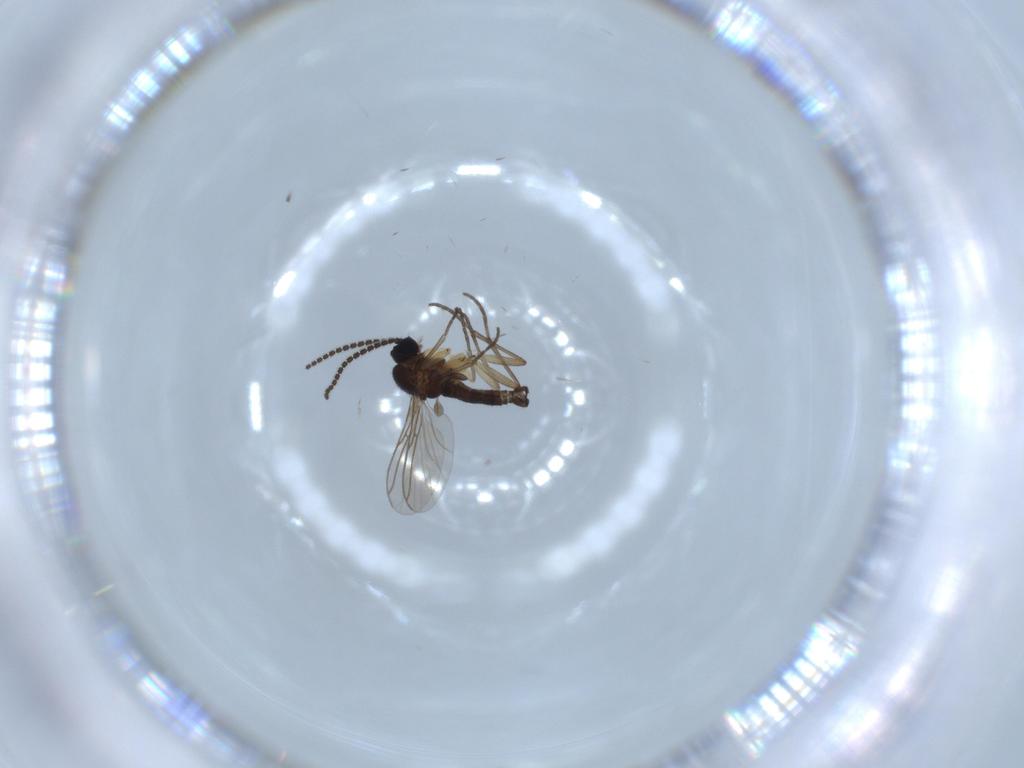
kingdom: Animalia
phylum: Arthropoda
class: Insecta
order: Diptera
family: Sciaridae
